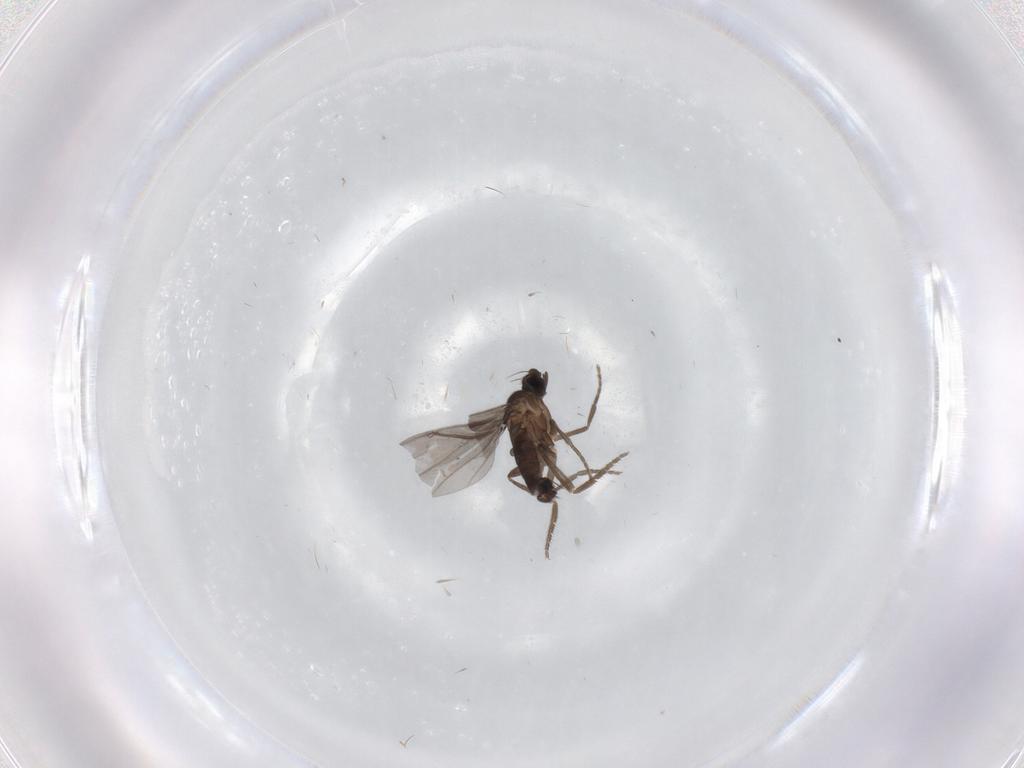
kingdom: Animalia
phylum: Arthropoda
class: Insecta
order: Diptera
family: Phoridae
